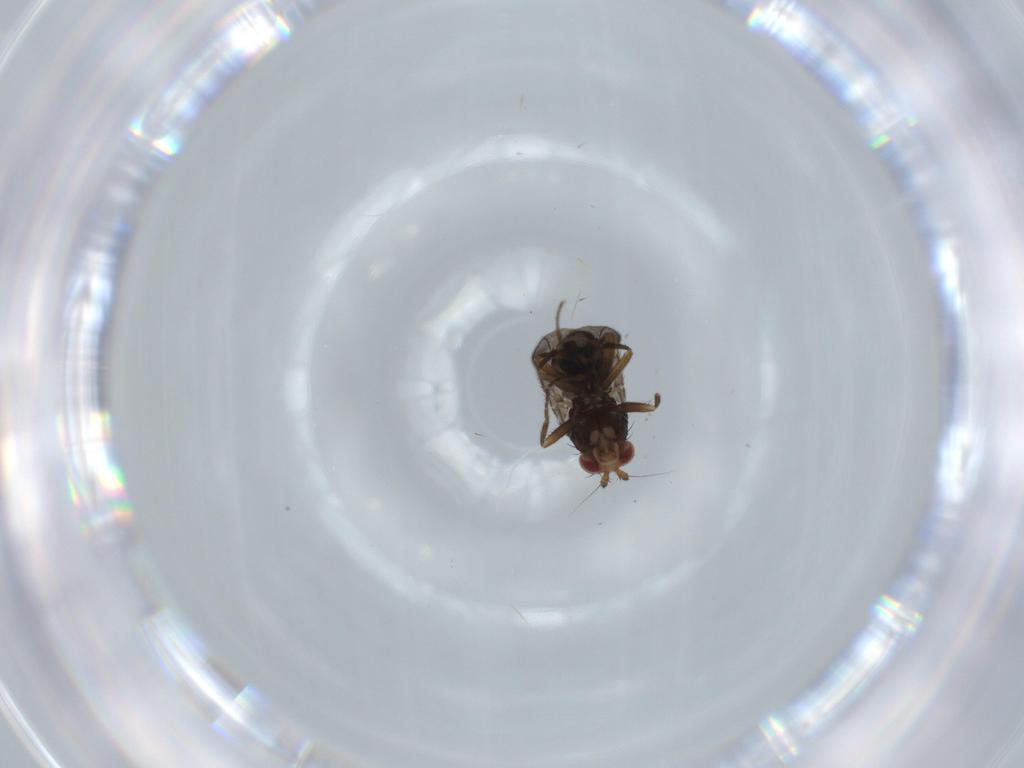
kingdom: Animalia
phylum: Arthropoda
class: Insecta
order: Diptera
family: Sphaeroceridae
